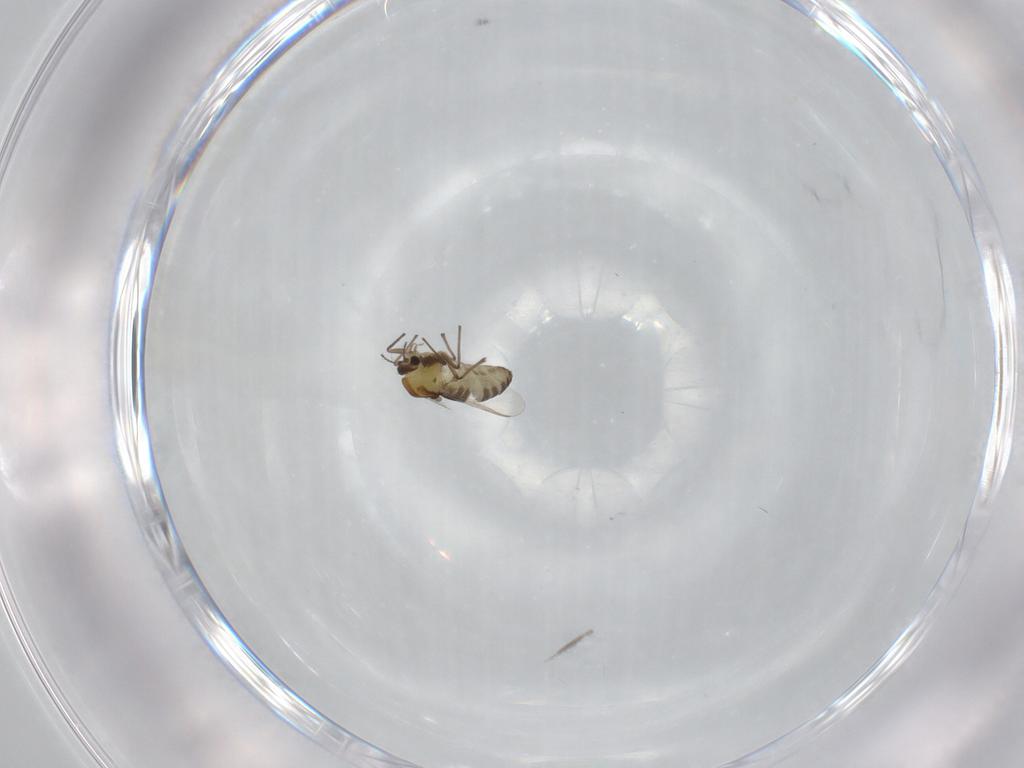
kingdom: Animalia
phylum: Arthropoda
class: Insecta
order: Diptera
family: Chironomidae
